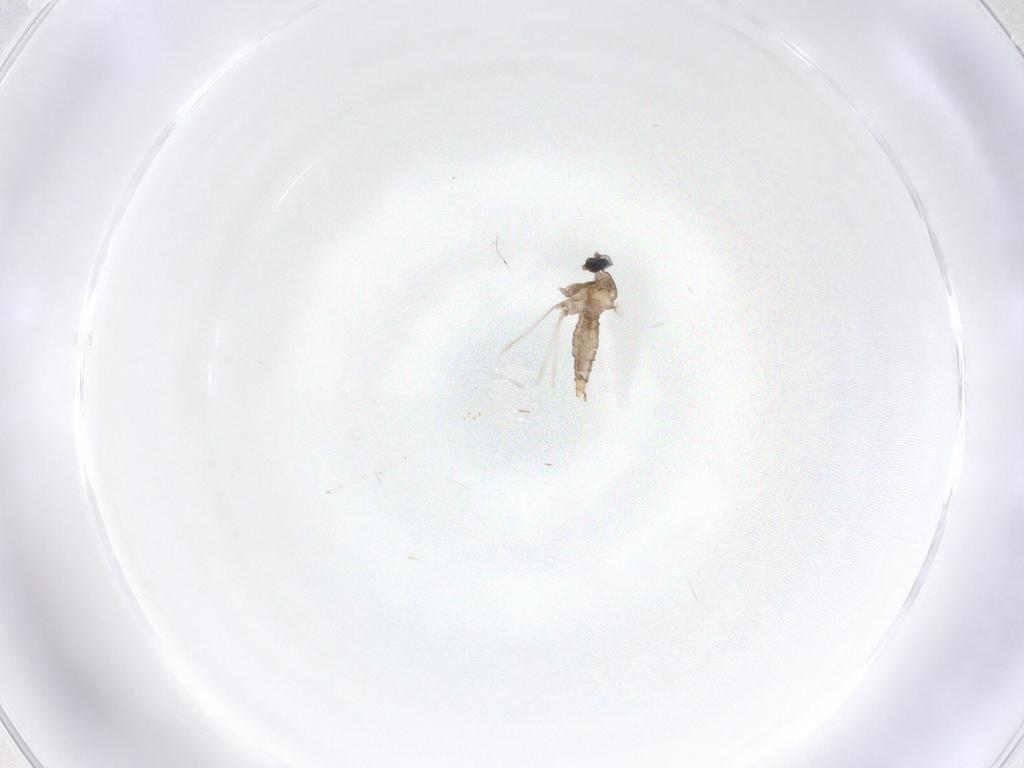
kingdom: Animalia
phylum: Arthropoda
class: Insecta
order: Diptera
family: Cecidomyiidae
